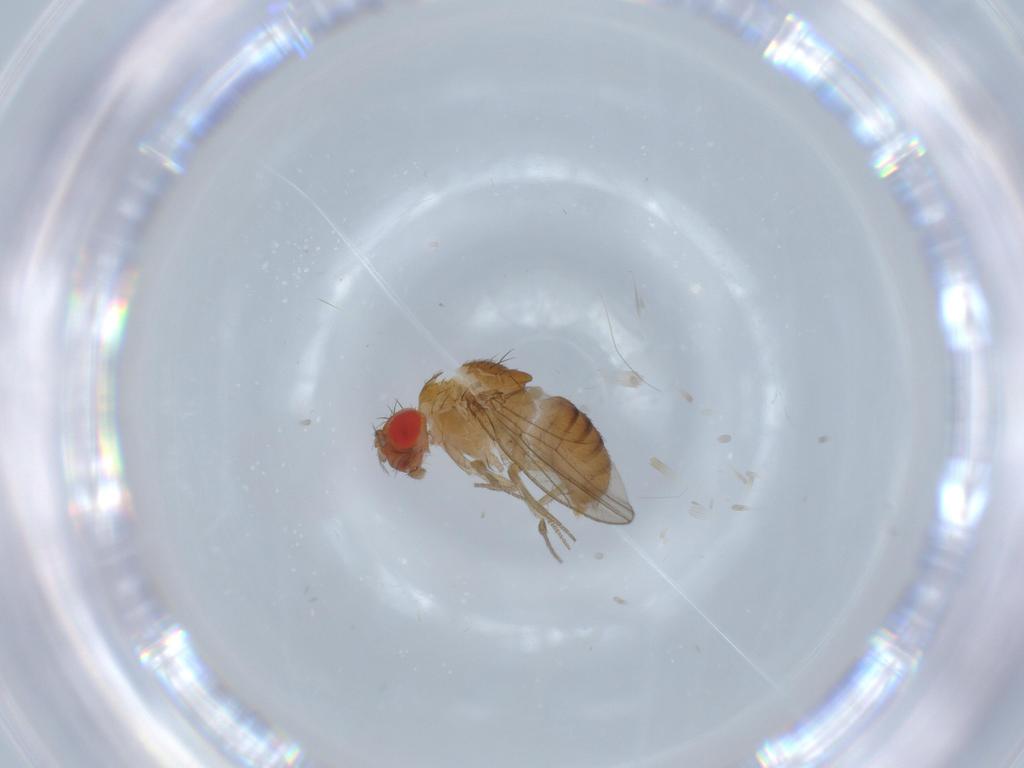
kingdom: Animalia
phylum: Arthropoda
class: Insecta
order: Diptera
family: Drosophilidae
